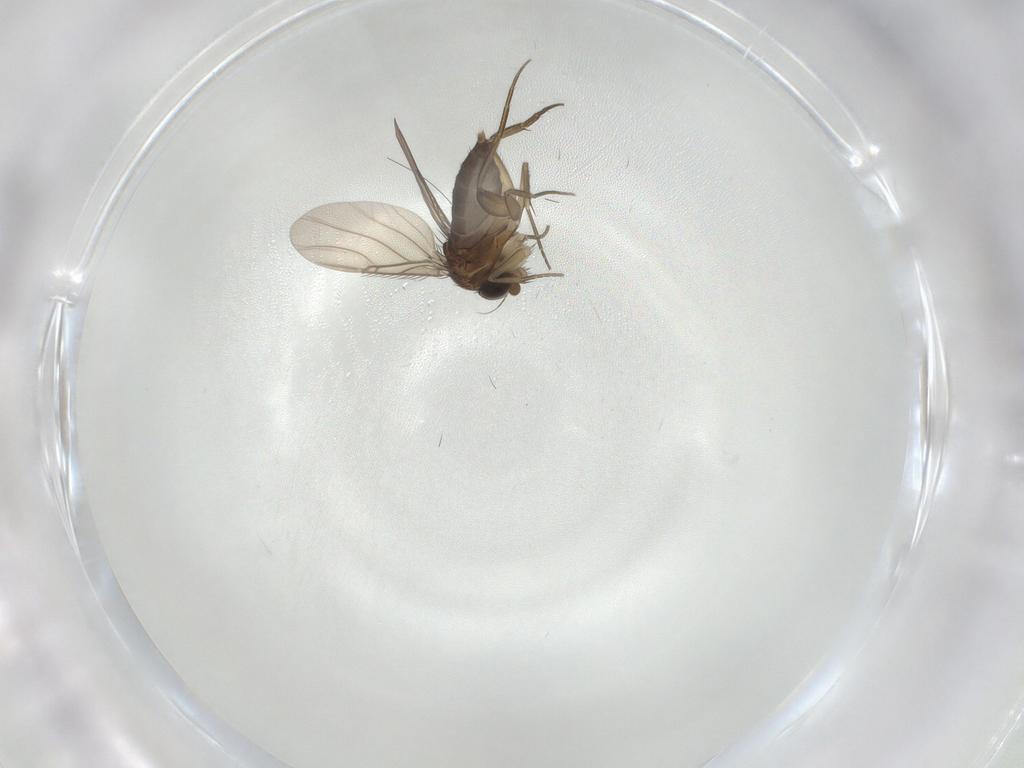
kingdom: Animalia
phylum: Arthropoda
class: Insecta
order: Diptera
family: Phoridae
